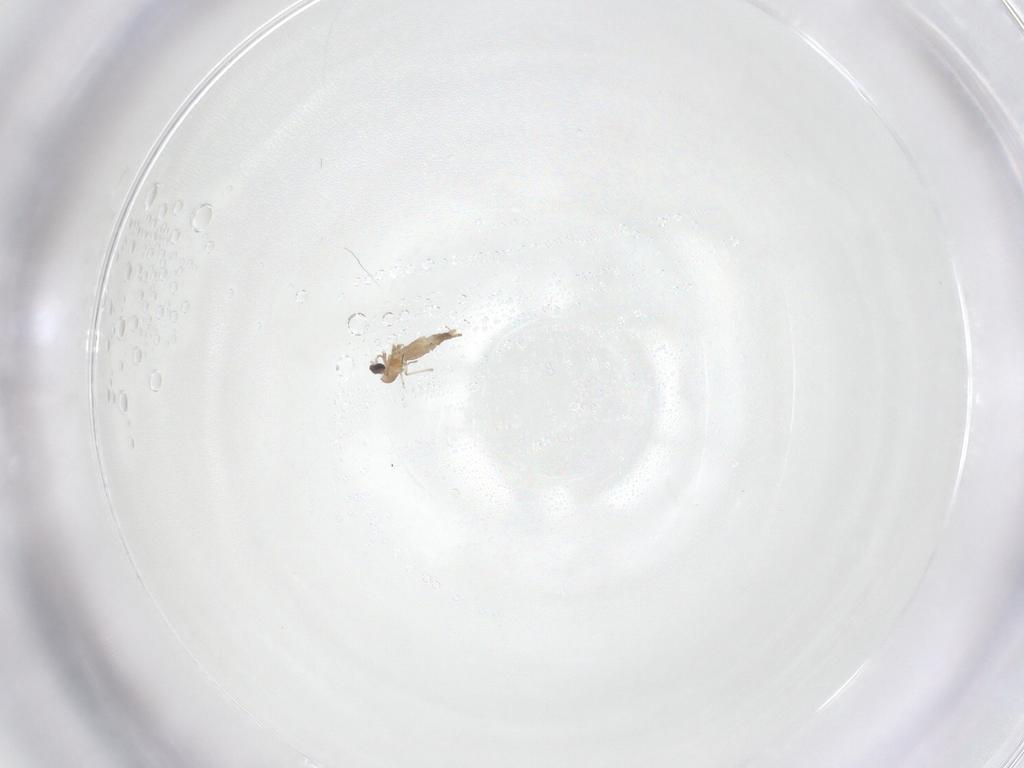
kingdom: Animalia
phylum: Arthropoda
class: Insecta
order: Diptera
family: Cecidomyiidae
